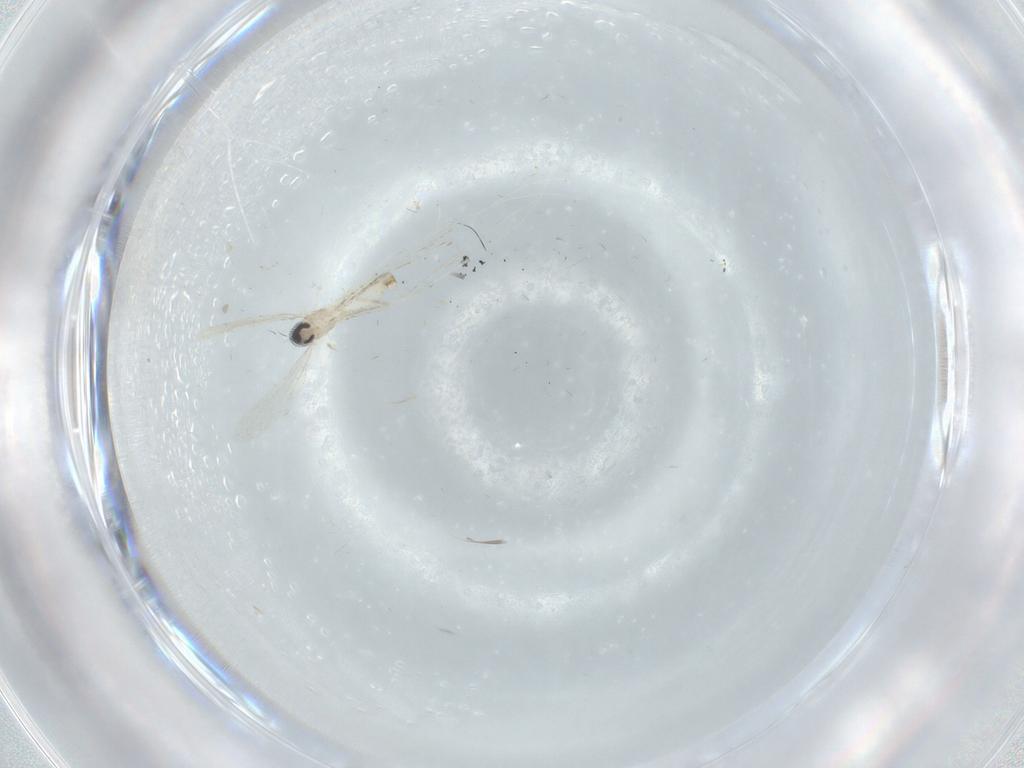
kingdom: Animalia
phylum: Arthropoda
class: Insecta
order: Diptera
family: Cecidomyiidae
